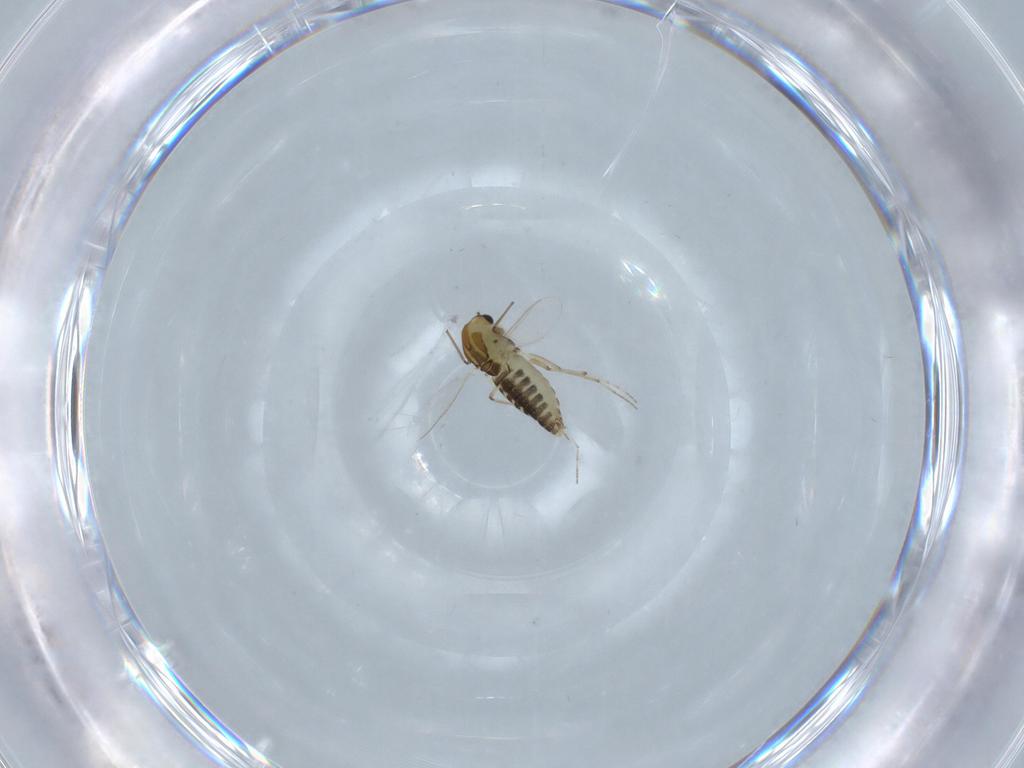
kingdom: Animalia
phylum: Arthropoda
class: Insecta
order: Diptera
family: Chironomidae
